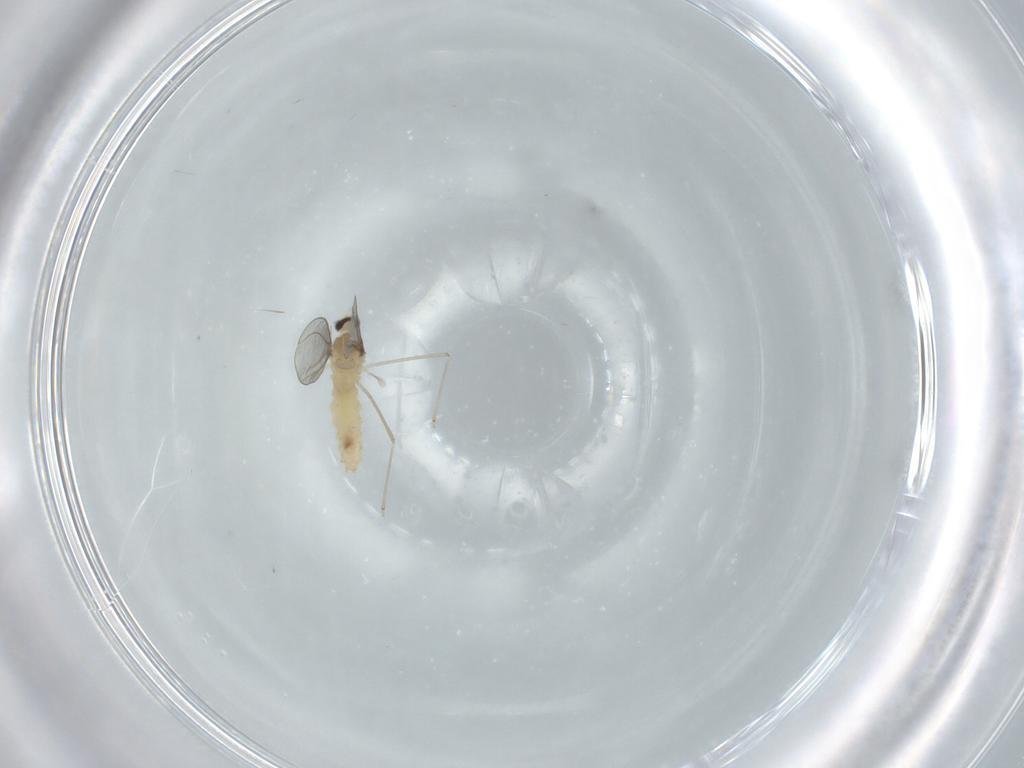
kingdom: Animalia
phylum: Arthropoda
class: Insecta
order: Diptera
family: Cecidomyiidae
